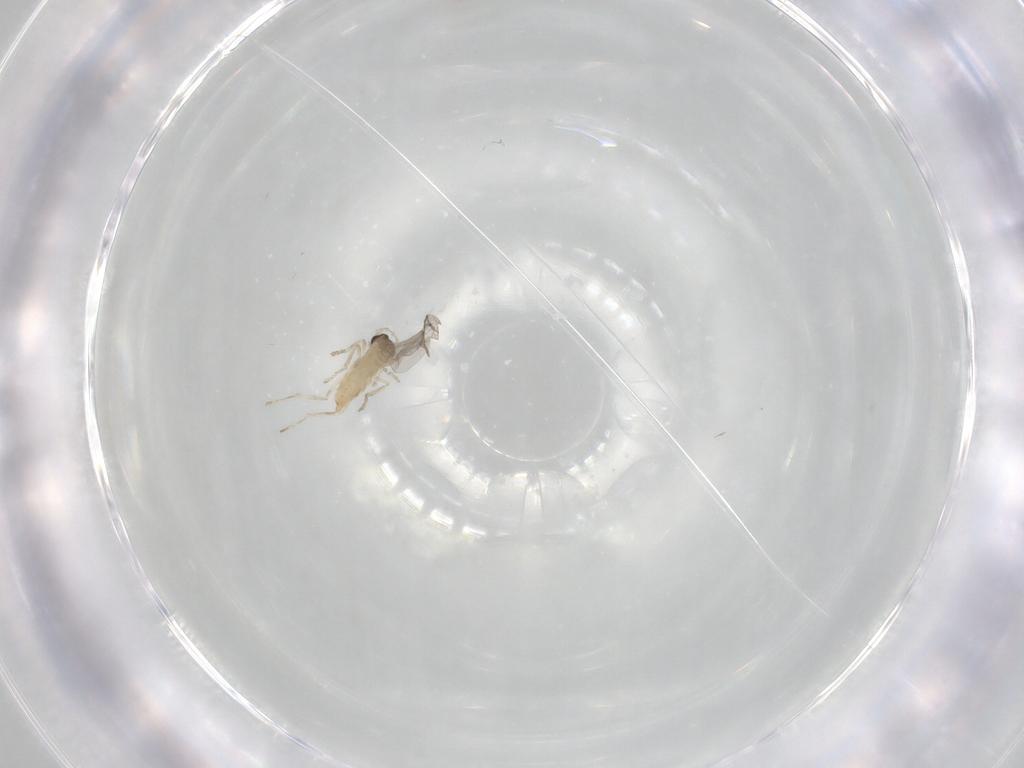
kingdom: Animalia
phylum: Arthropoda
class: Insecta
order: Diptera
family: Cecidomyiidae
